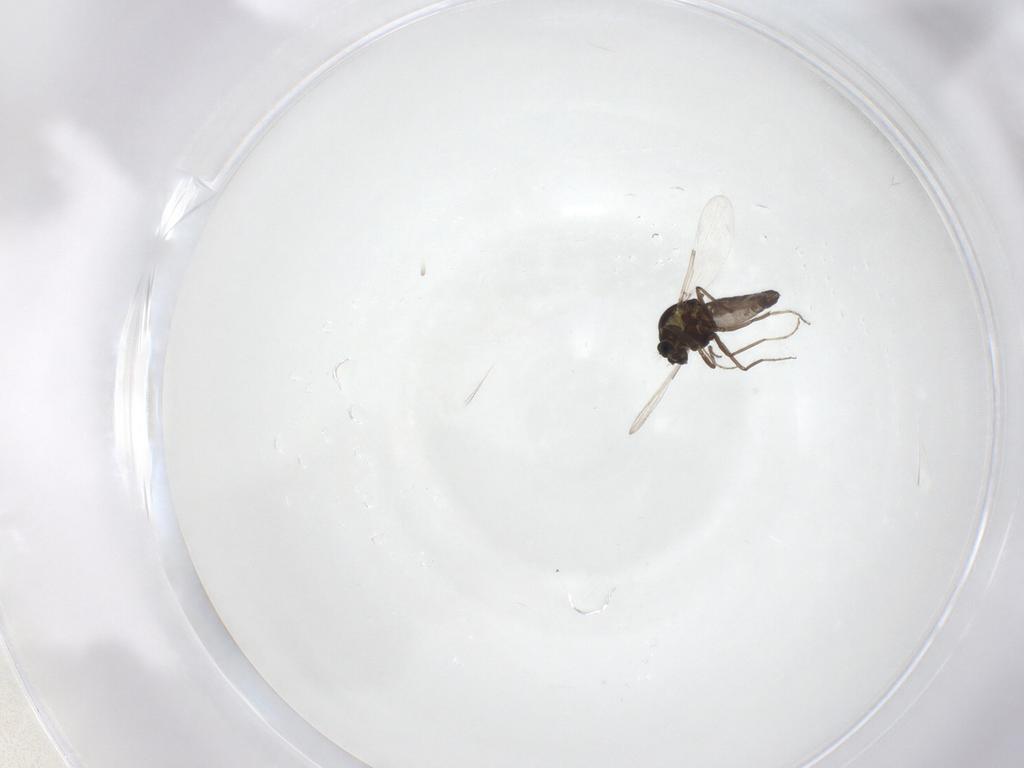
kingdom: Animalia
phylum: Arthropoda
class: Insecta
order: Diptera
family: Ceratopogonidae
